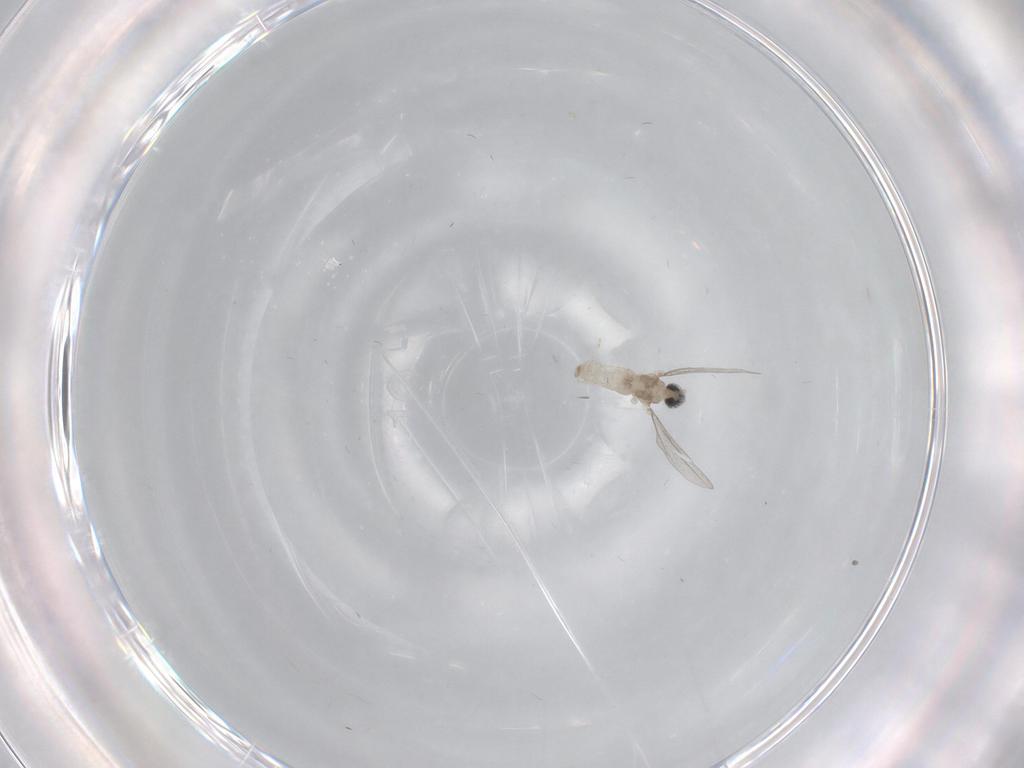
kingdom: Animalia
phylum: Arthropoda
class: Insecta
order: Diptera
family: Cecidomyiidae
